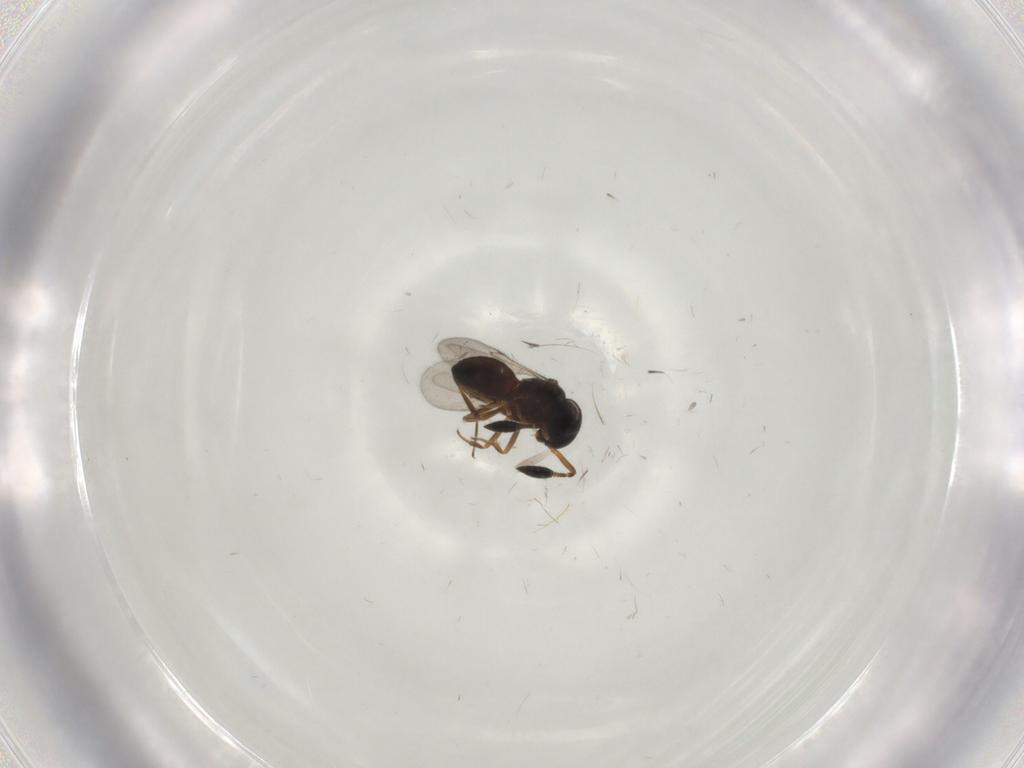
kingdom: Animalia
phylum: Arthropoda
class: Insecta
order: Hymenoptera
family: Scelionidae
